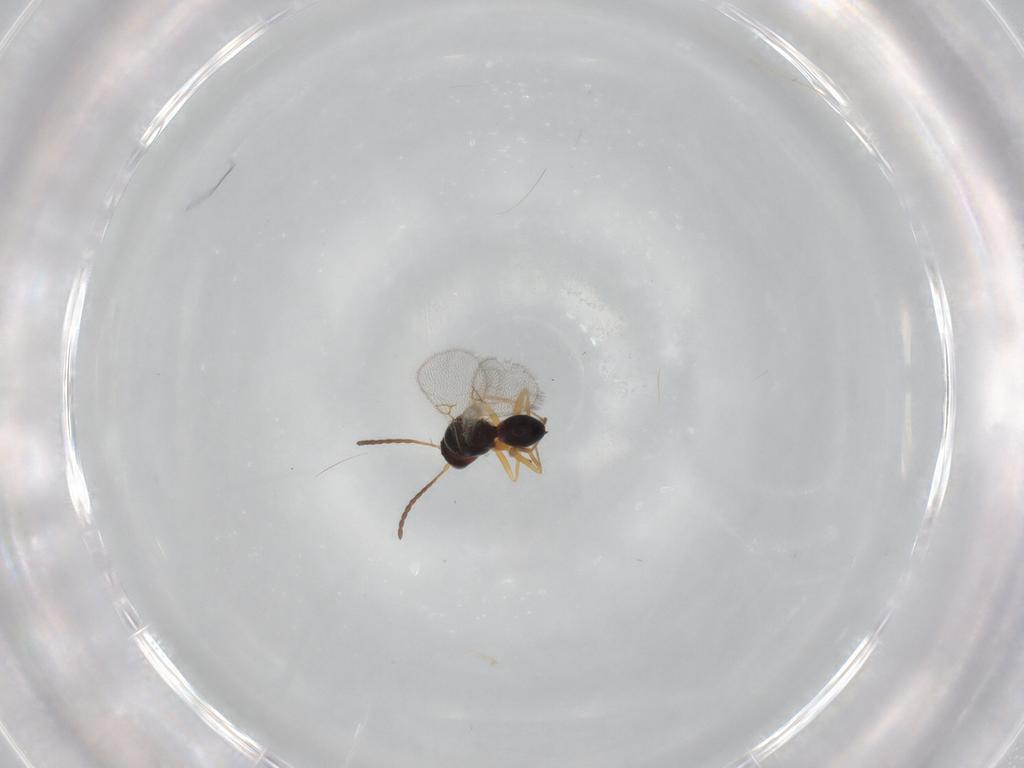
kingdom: Animalia
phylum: Arthropoda
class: Insecta
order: Hymenoptera
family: Figitidae
